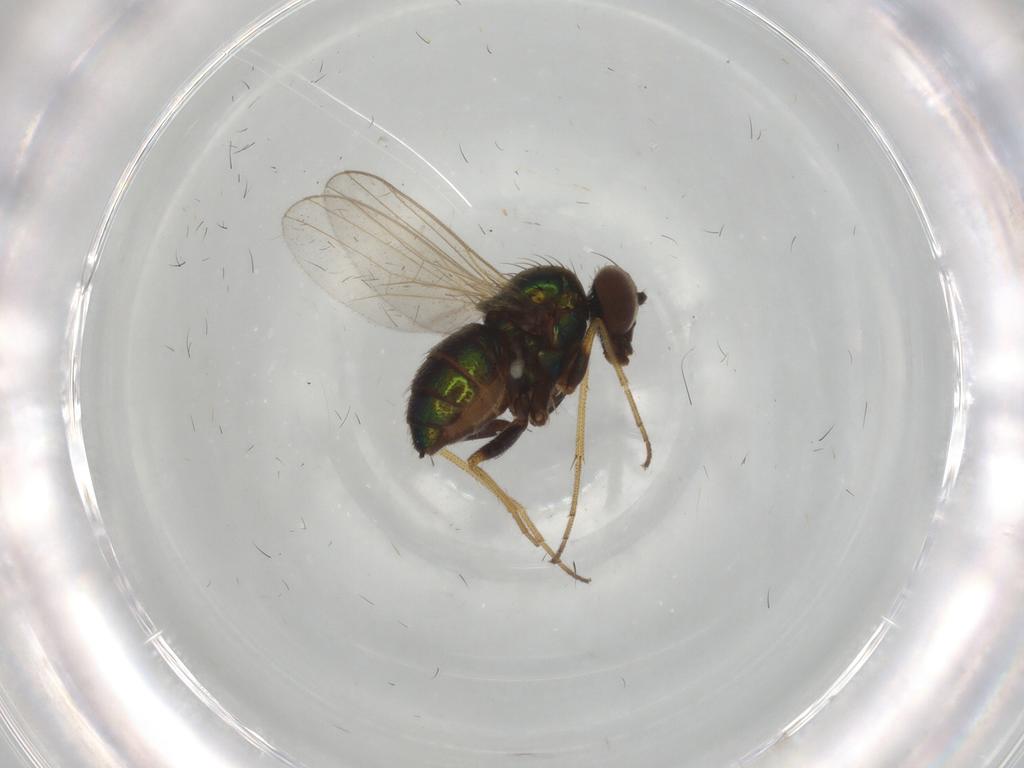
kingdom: Animalia
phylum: Arthropoda
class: Insecta
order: Diptera
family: Dolichopodidae
